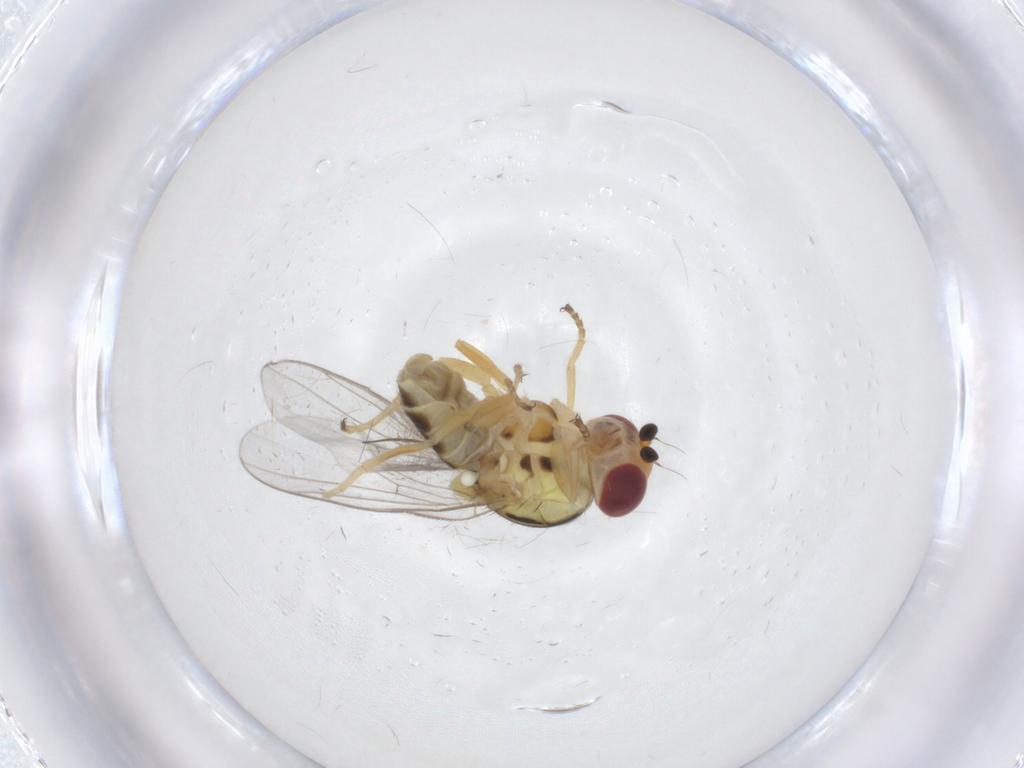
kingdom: Animalia
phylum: Arthropoda
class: Insecta
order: Diptera
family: Chloropidae
